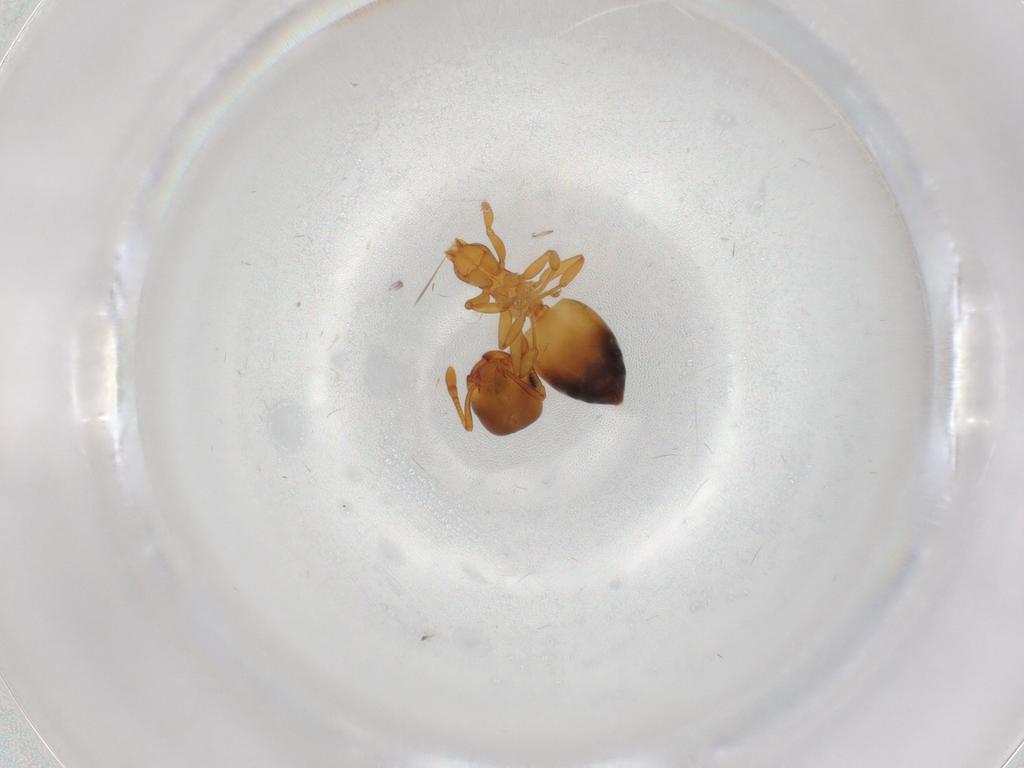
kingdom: Animalia
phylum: Arthropoda
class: Insecta
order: Hymenoptera
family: Formicidae
